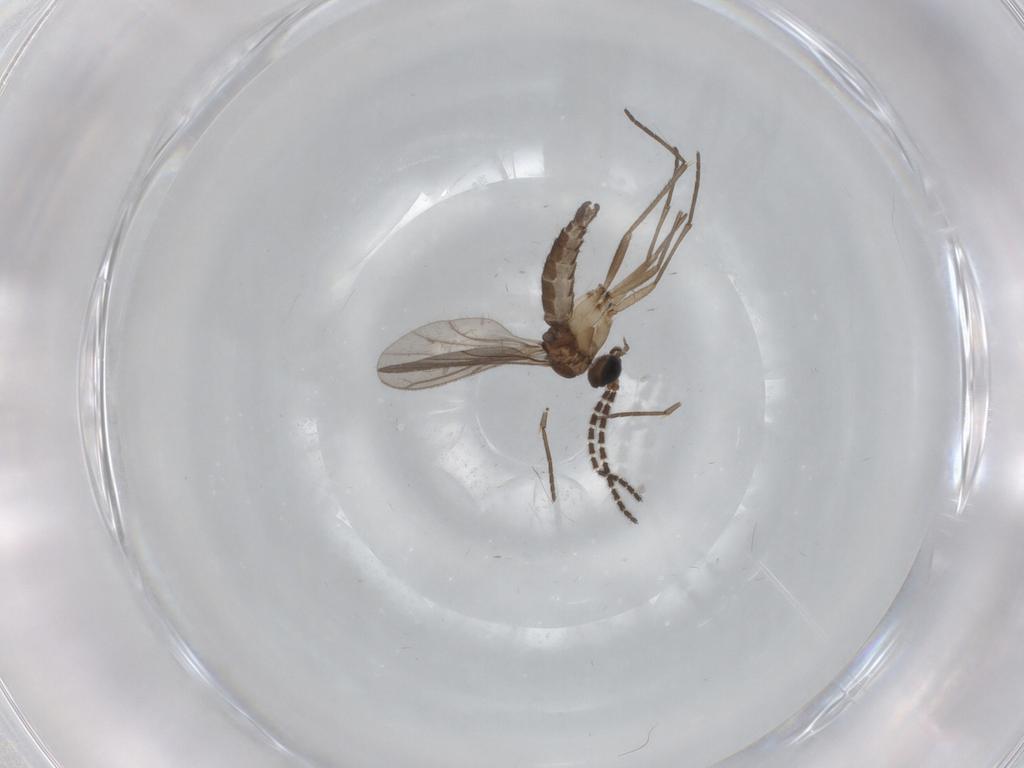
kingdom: Animalia
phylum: Arthropoda
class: Insecta
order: Diptera
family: Sciaridae
